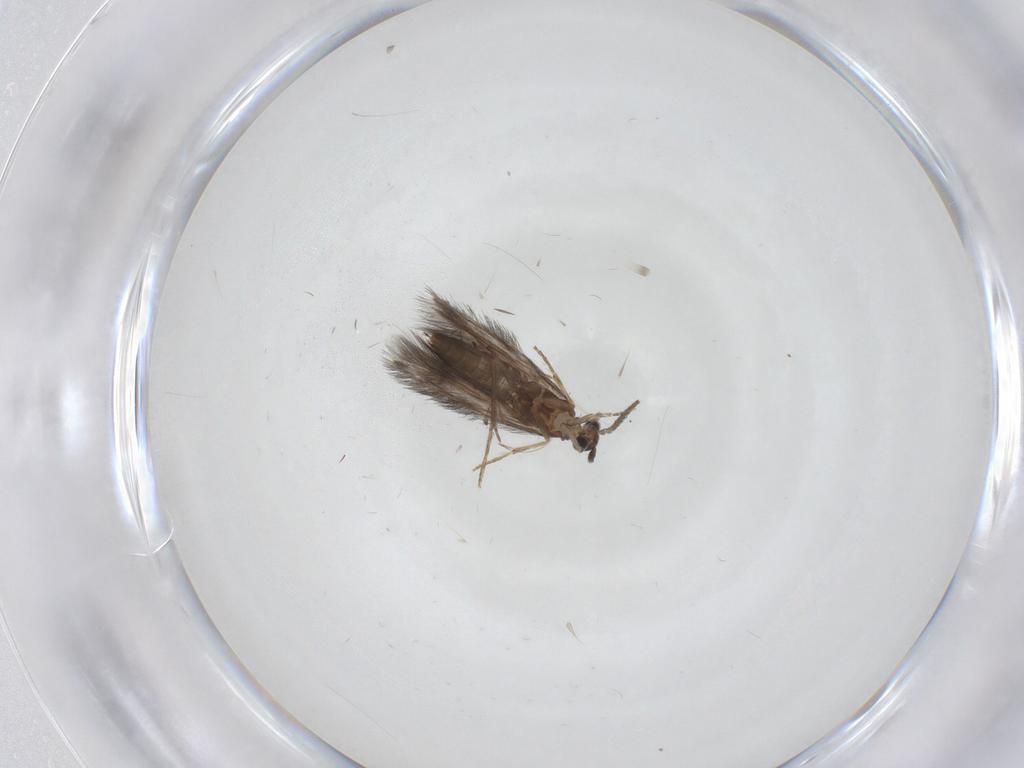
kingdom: Animalia
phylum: Arthropoda
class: Insecta
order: Trichoptera
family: Hydroptilidae
